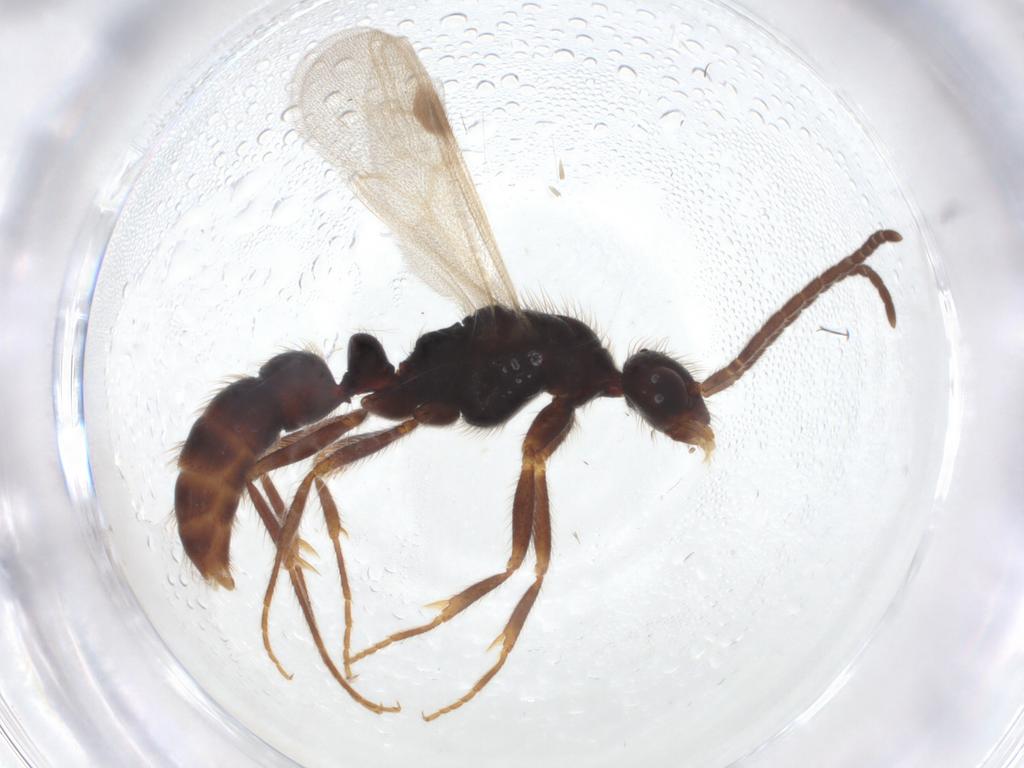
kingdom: Animalia
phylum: Arthropoda
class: Insecta
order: Hymenoptera
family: Formicidae
